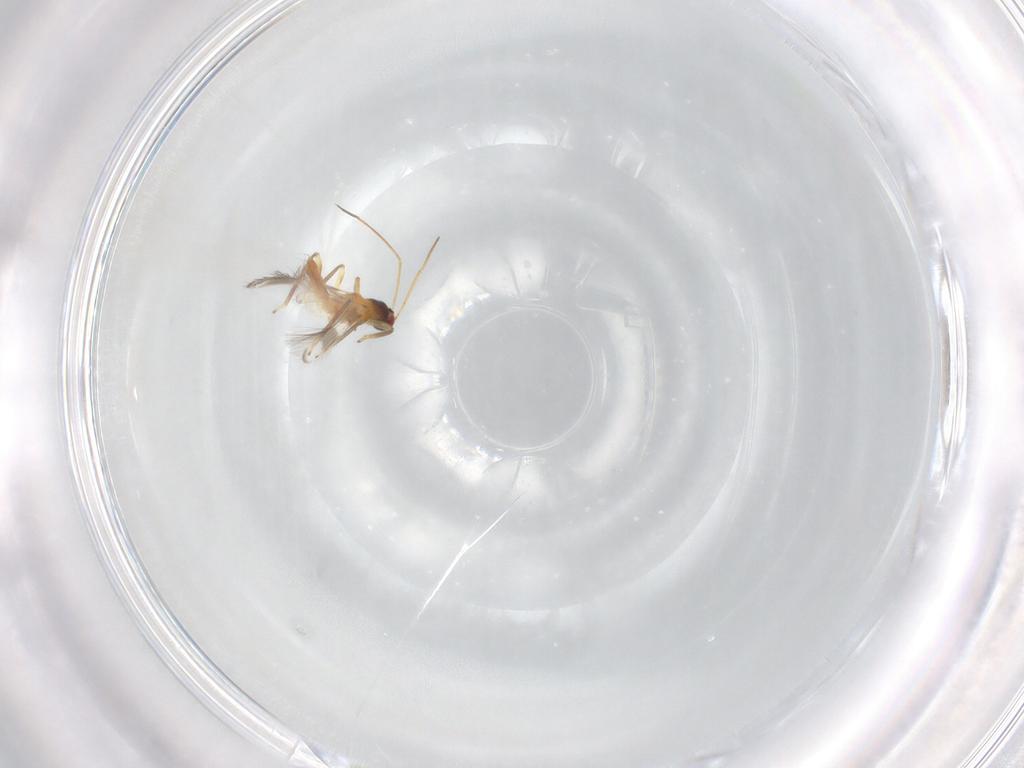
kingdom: Animalia
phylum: Arthropoda
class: Insecta
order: Thysanoptera
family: Aeolothripidae
